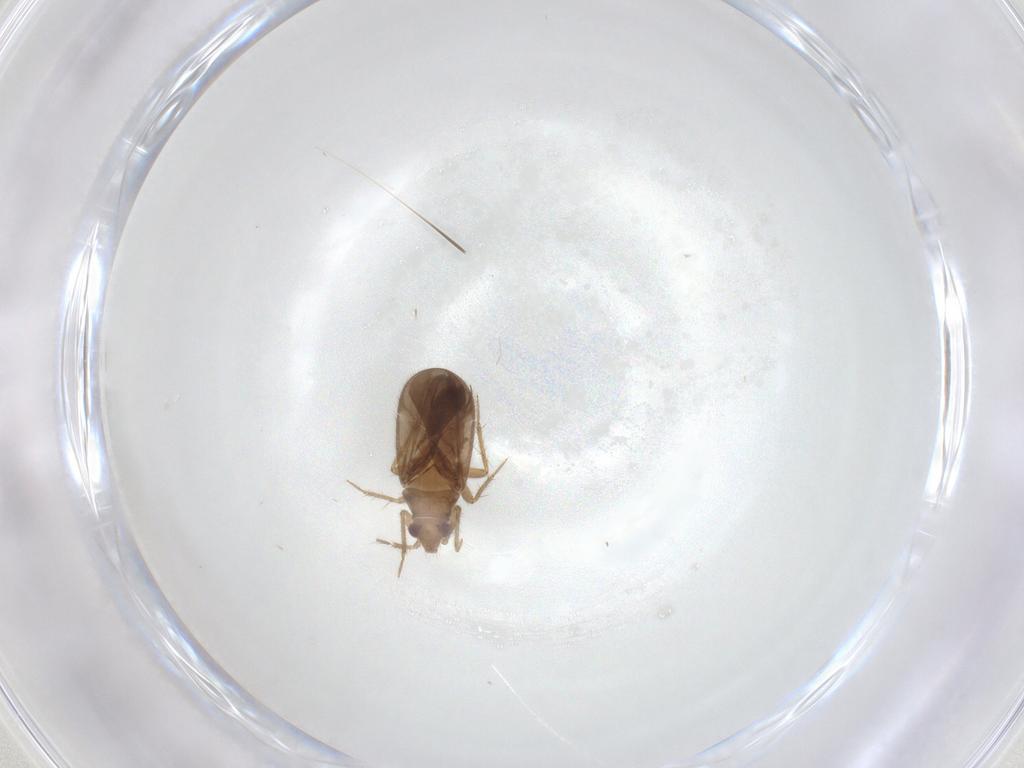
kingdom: Animalia
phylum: Arthropoda
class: Insecta
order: Hemiptera
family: Ceratocombidae
